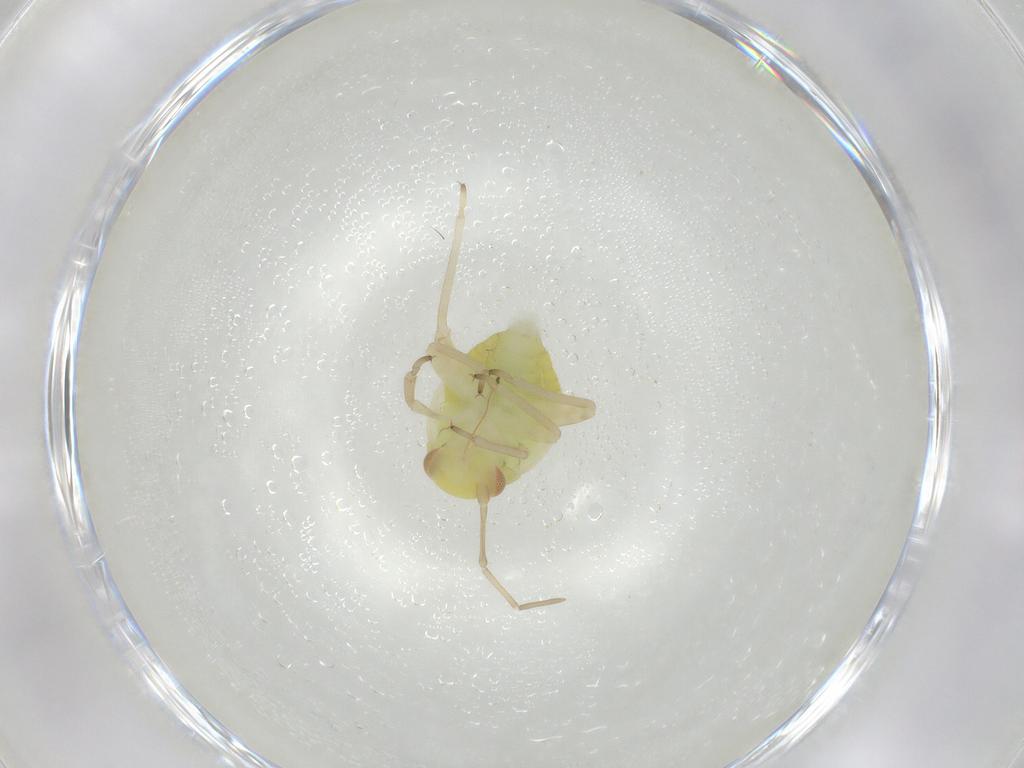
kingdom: Animalia
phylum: Arthropoda
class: Insecta
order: Hemiptera
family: Miridae
